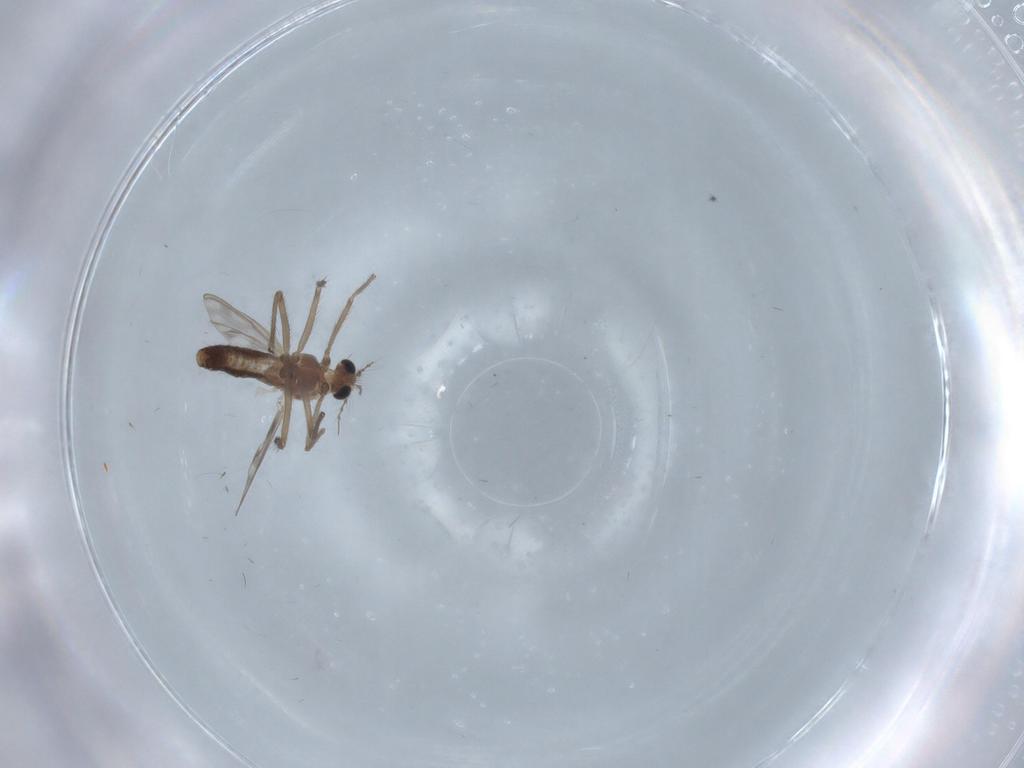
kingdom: Animalia
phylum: Arthropoda
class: Insecta
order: Diptera
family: Chironomidae
